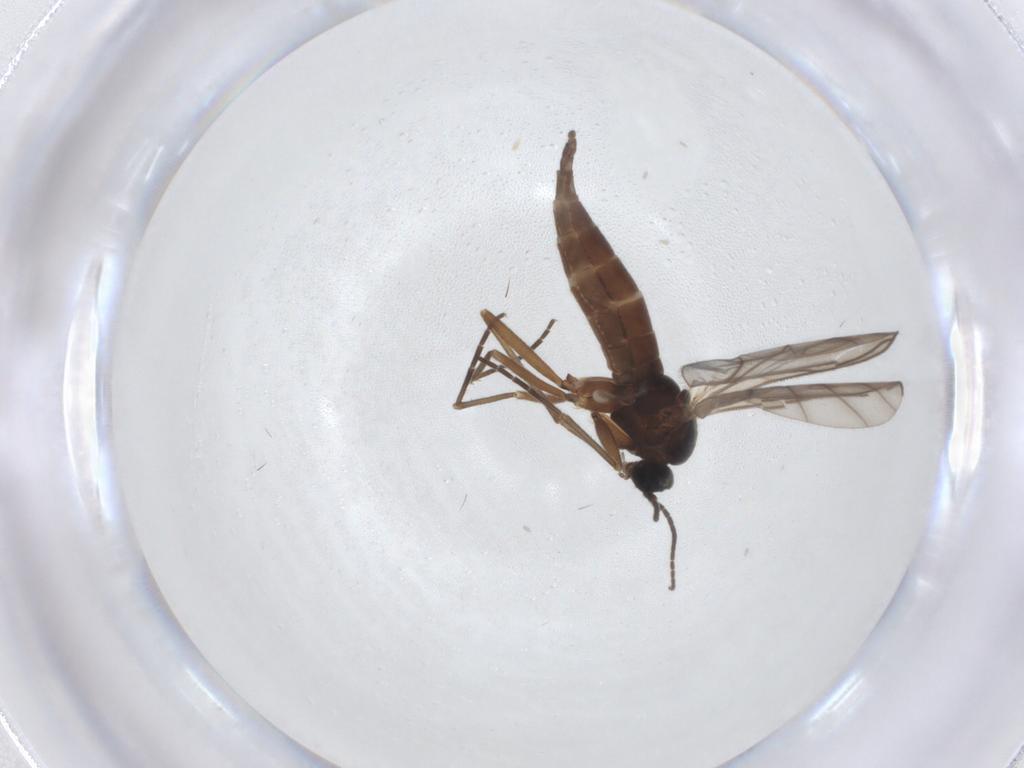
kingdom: Animalia
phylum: Arthropoda
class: Insecta
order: Diptera
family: Sciaridae
